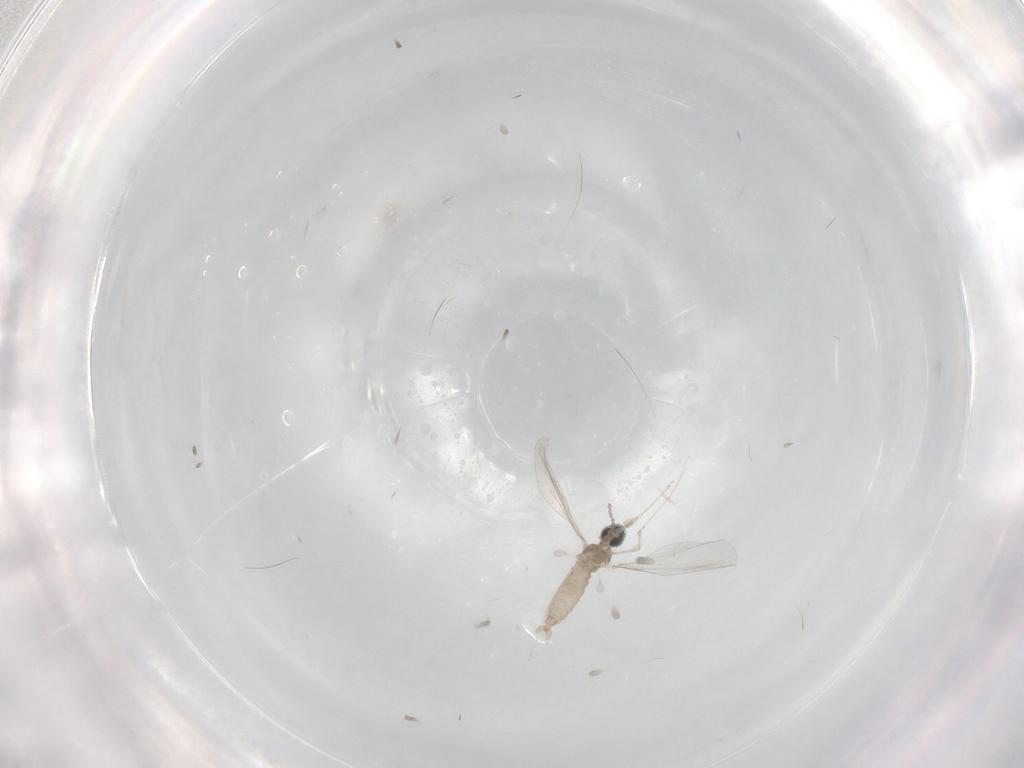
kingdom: Animalia
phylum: Arthropoda
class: Insecta
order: Diptera
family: Cecidomyiidae
